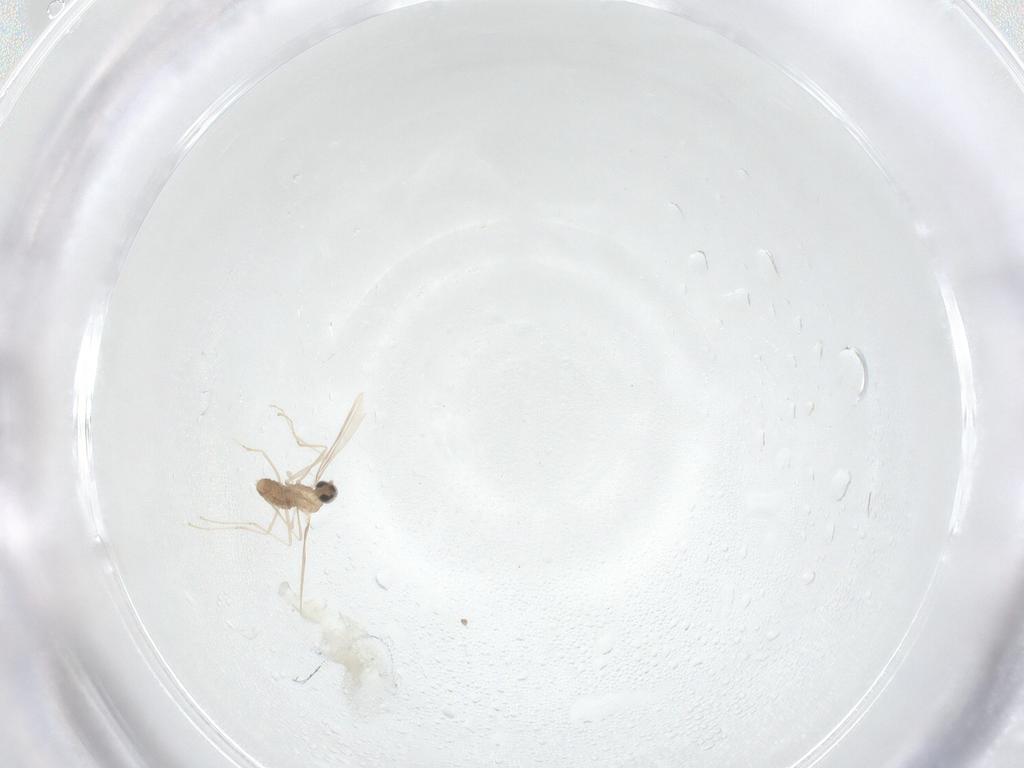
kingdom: Animalia
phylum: Arthropoda
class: Insecta
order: Diptera
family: Cecidomyiidae
